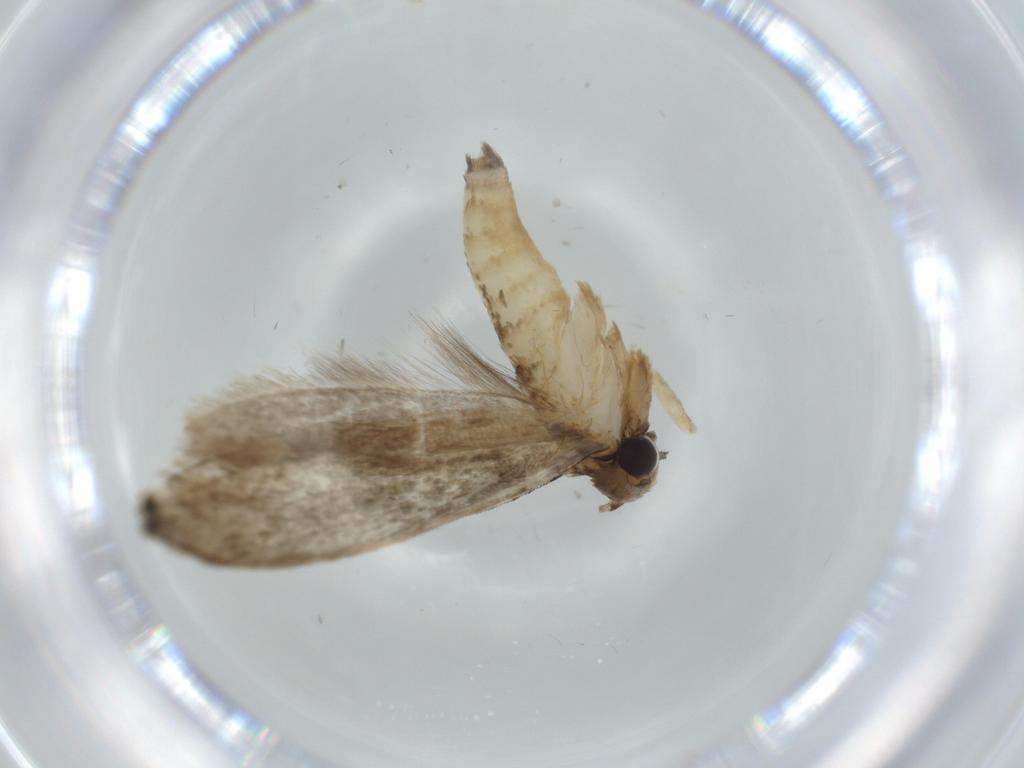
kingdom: Animalia
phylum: Arthropoda
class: Insecta
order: Lepidoptera
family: Tineidae
